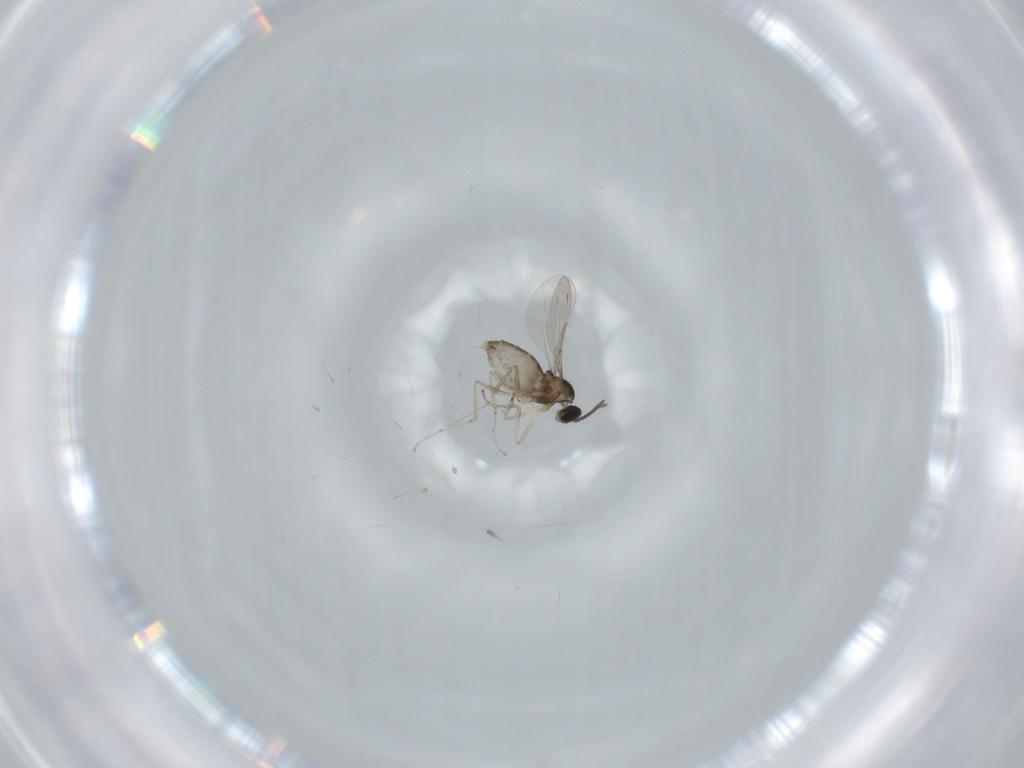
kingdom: Animalia
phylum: Arthropoda
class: Insecta
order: Diptera
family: Cecidomyiidae
